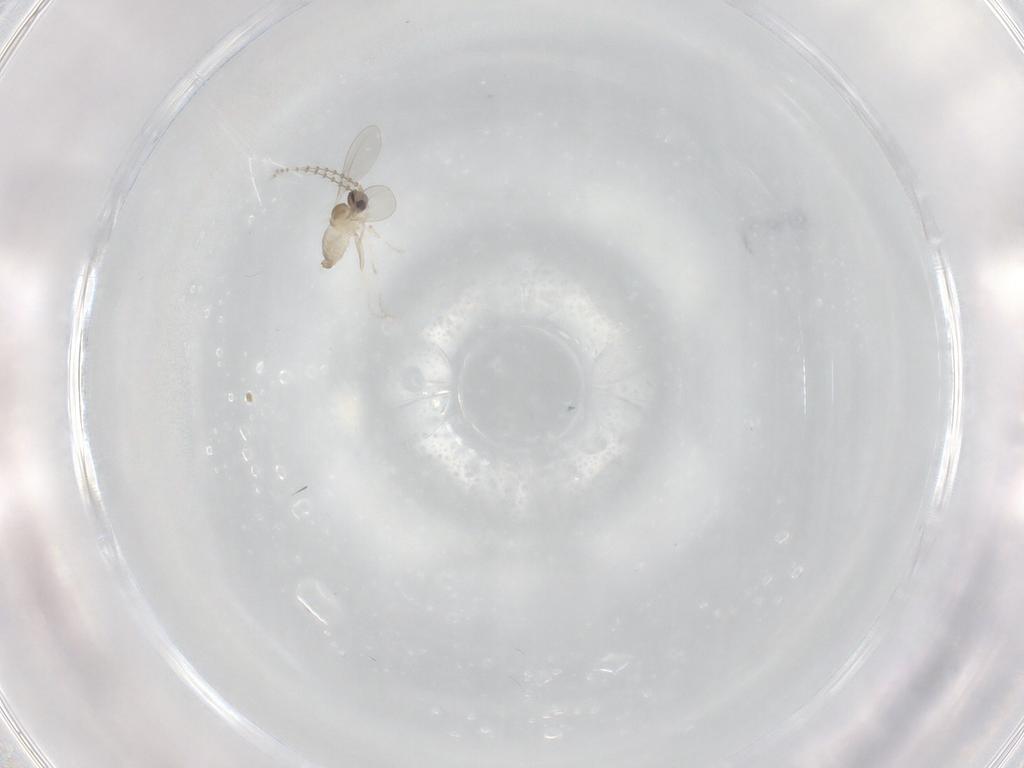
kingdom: Animalia
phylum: Arthropoda
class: Insecta
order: Diptera
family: Cecidomyiidae
